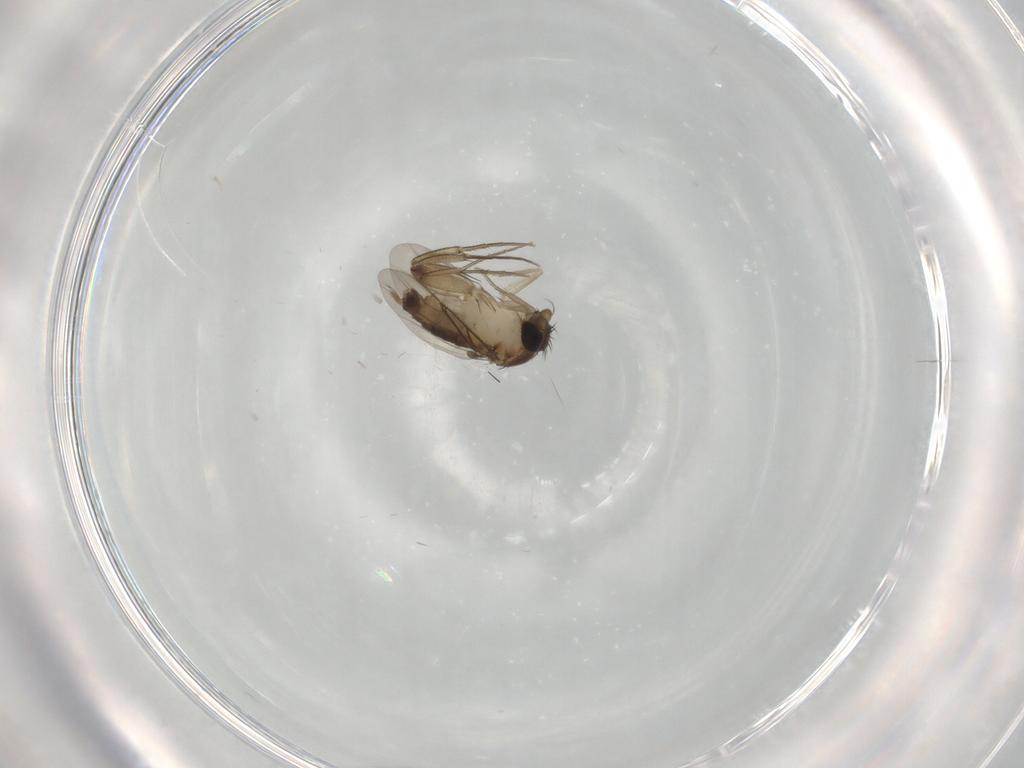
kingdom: Animalia
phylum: Arthropoda
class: Insecta
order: Diptera
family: Phoridae
